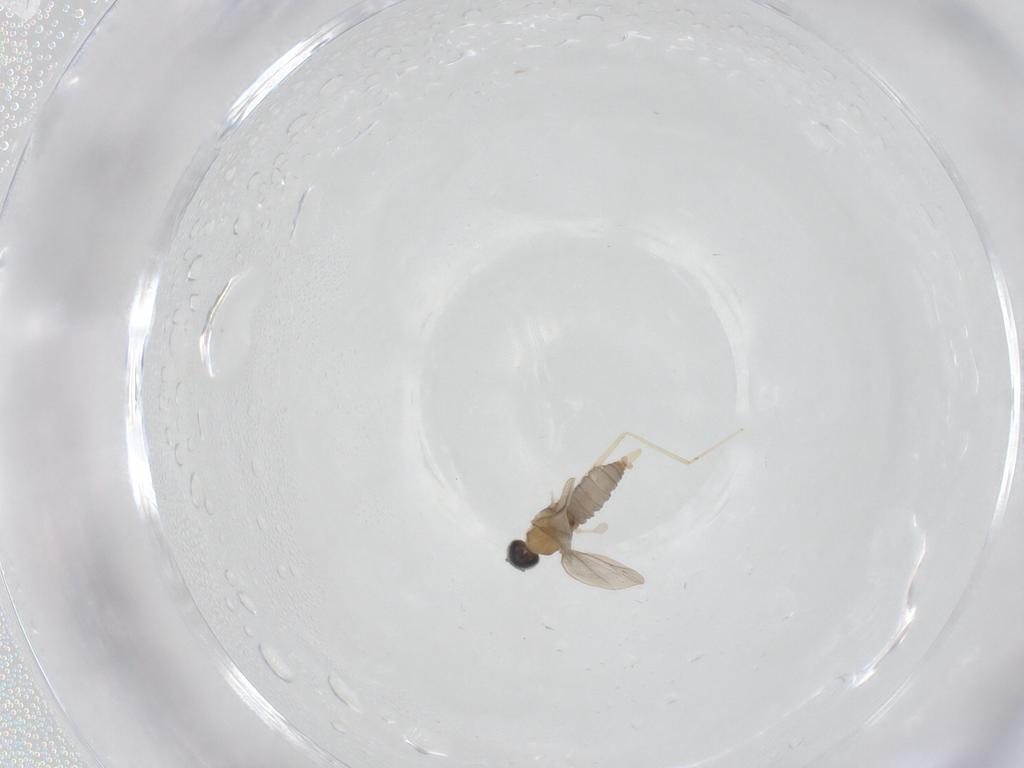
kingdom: Animalia
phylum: Arthropoda
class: Insecta
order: Diptera
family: Cecidomyiidae
